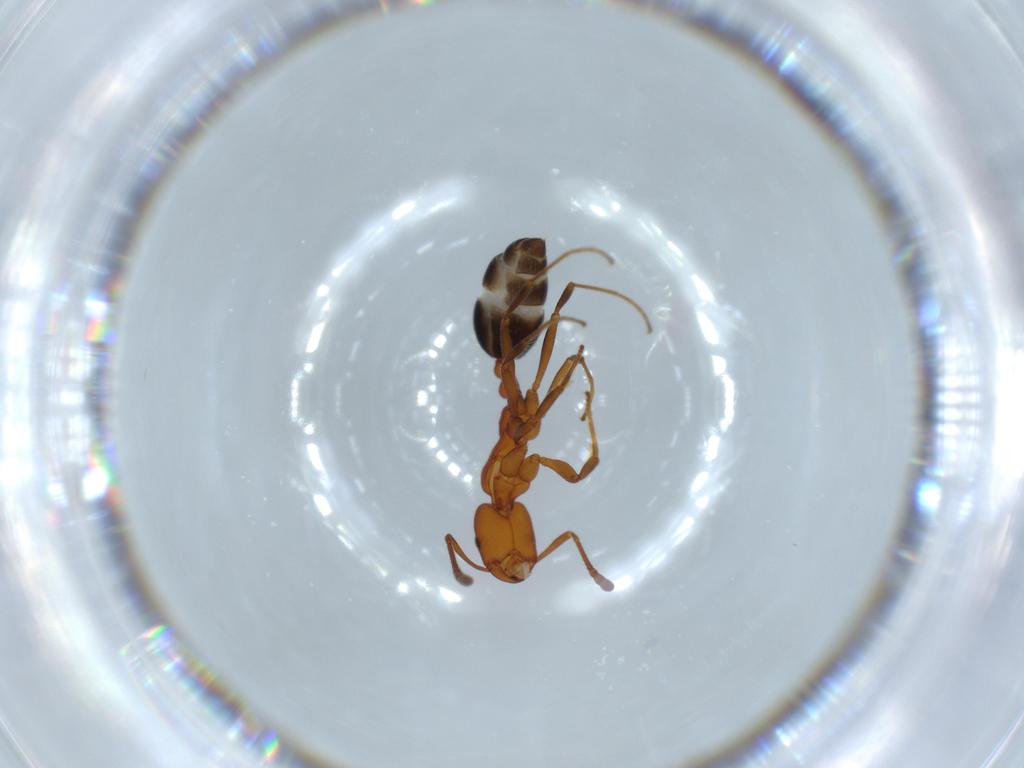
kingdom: Animalia
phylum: Arthropoda
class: Insecta
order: Hymenoptera
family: Formicidae
